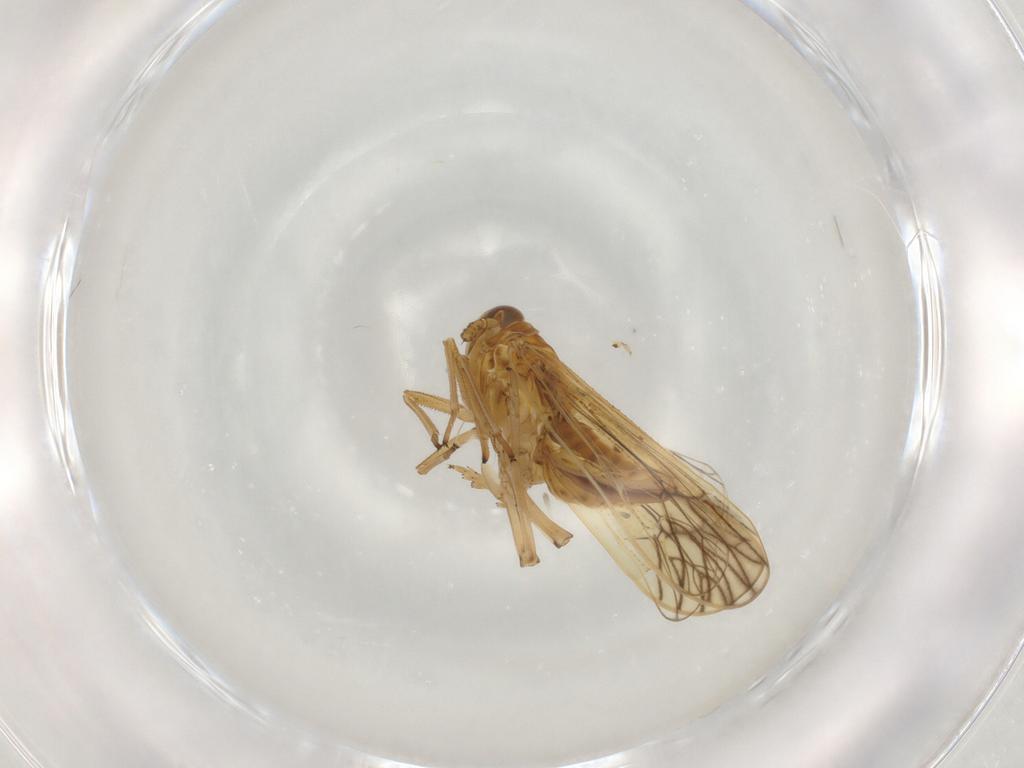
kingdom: Animalia
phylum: Arthropoda
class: Insecta
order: Hemiptera
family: Delphacidae
